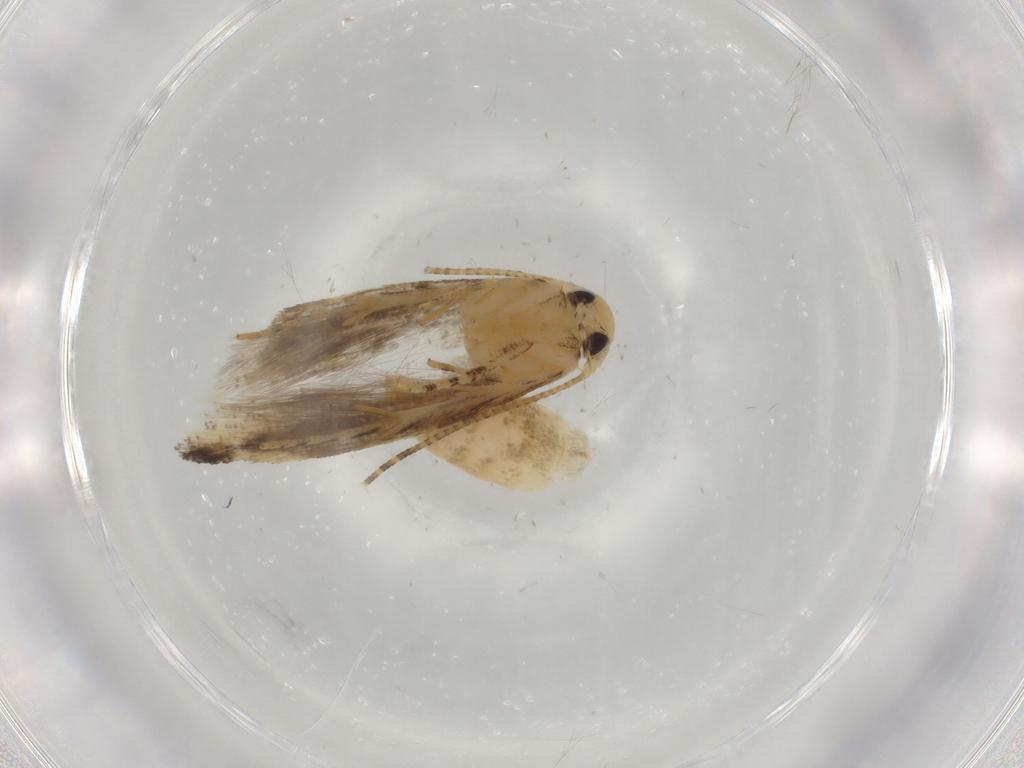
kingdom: Animalia
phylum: Arthropoda
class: Insecta
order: Lepidoptera
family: Gelechiidae
